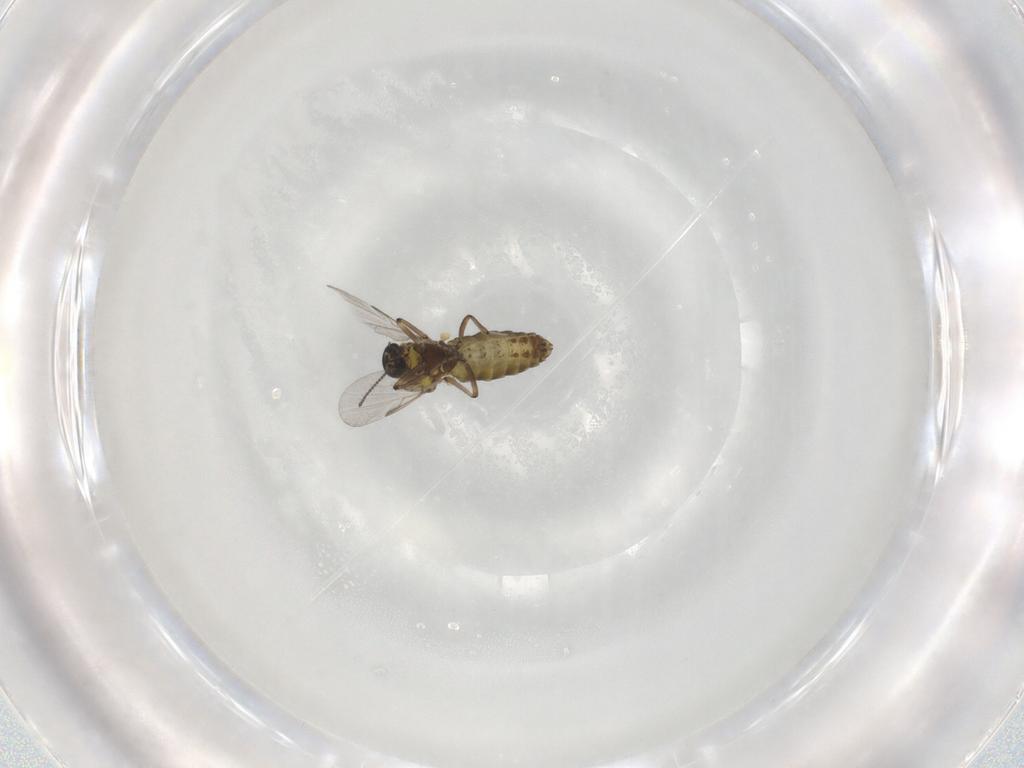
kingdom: Animalia
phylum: Arthropoda
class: Insecta
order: Diptera
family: Ceratopogonidae
